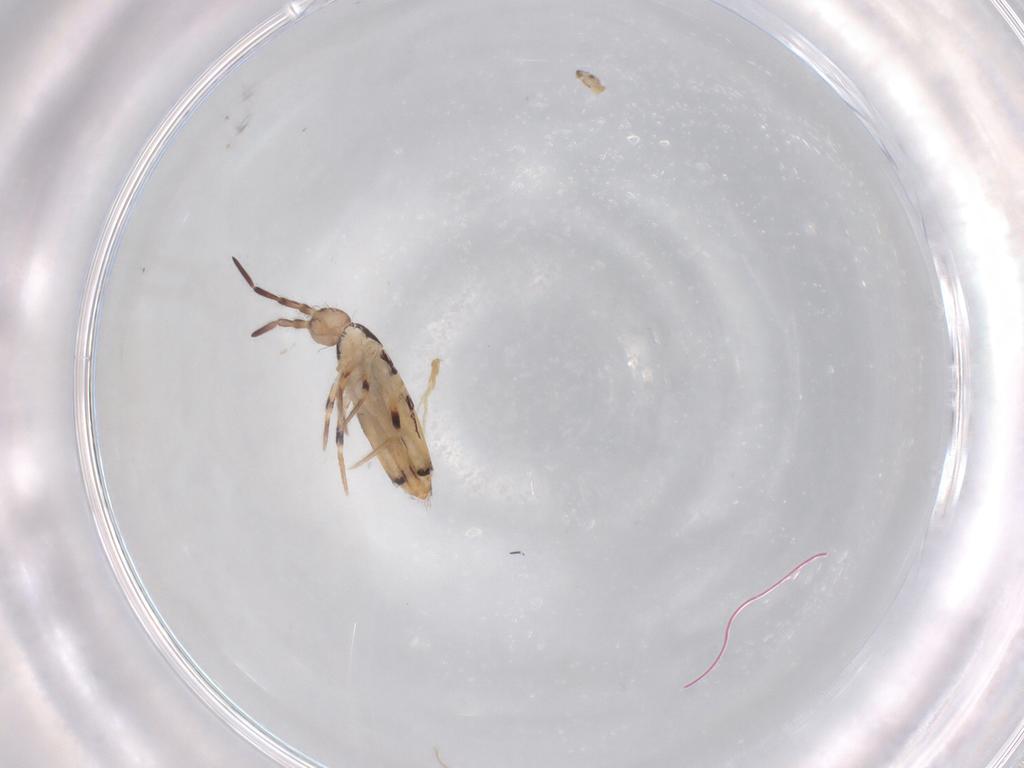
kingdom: Animalia
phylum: Arthropoda
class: Collembola
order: Entomobryomorpha
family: Entomobryidae
